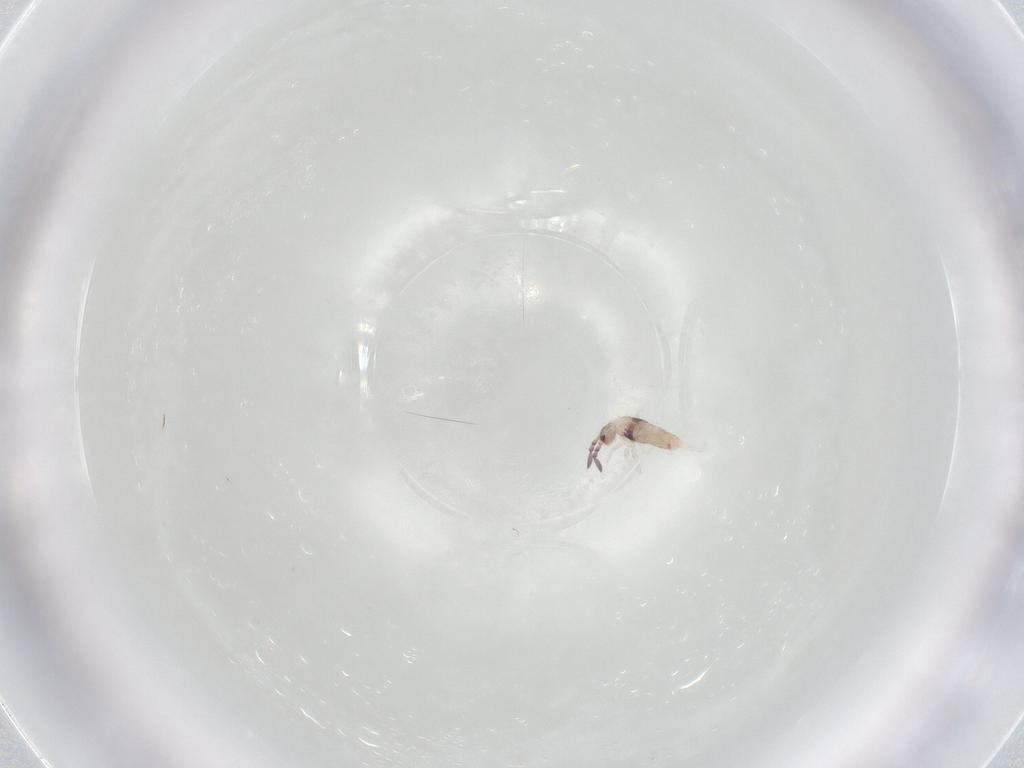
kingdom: Animalia
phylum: Arthropoda
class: Collembola
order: Entomobryomorpha
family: Entomobryidae
